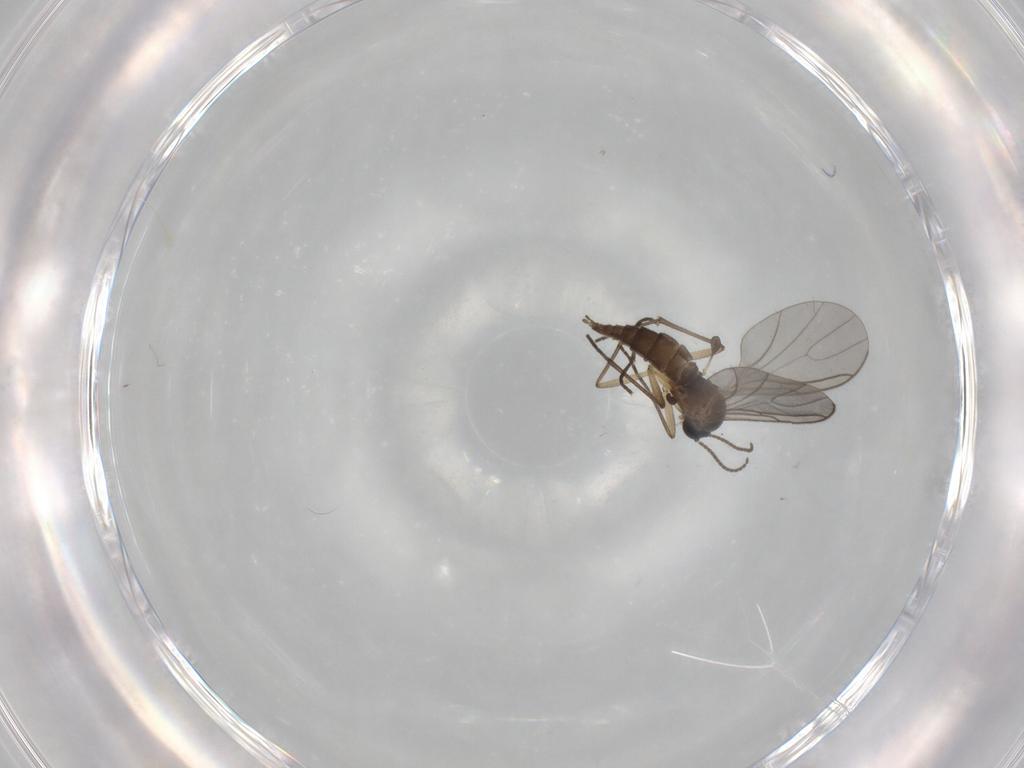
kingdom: Animalia
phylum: Arthropoda
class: Insecta
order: Diptera
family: Sciaridae
